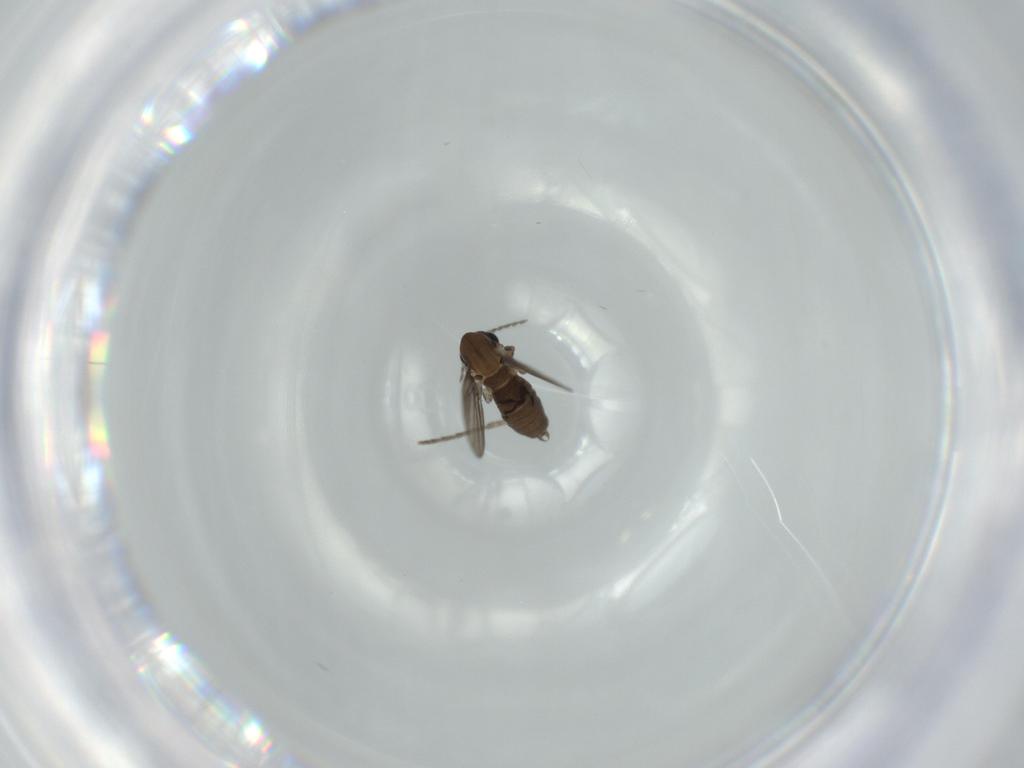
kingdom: Animalia
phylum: Arthropoda
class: Insecta
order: Diptera
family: Psychodidae
